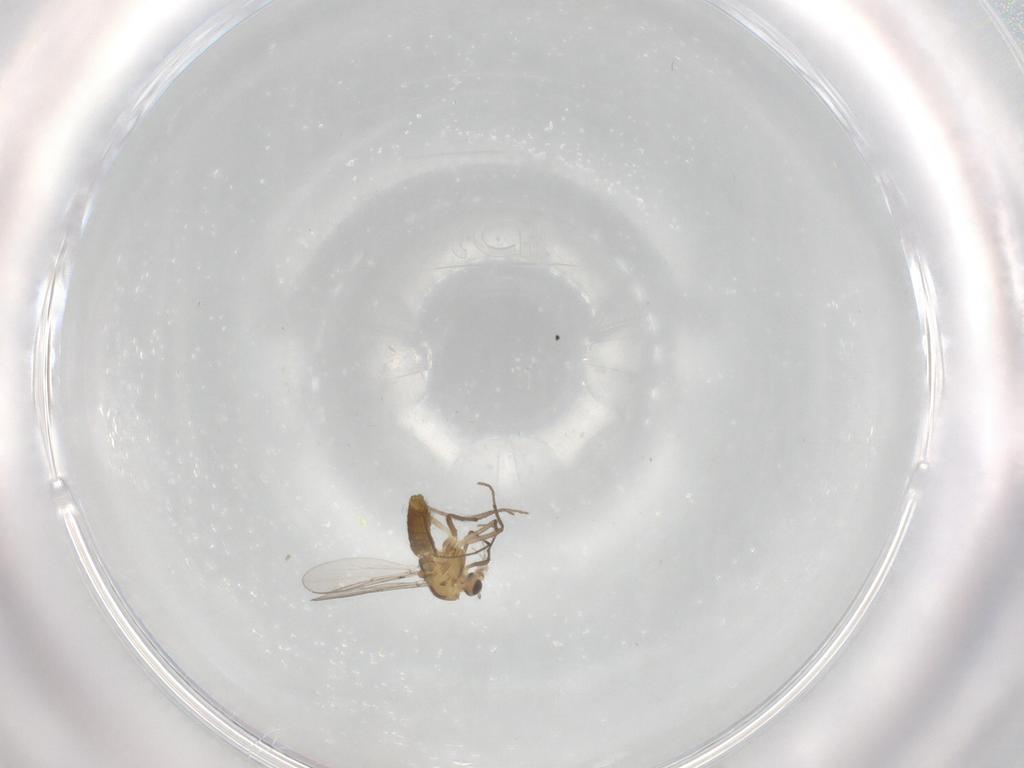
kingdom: Animalia
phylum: Arthropoda
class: Insecta
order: Diptera
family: Chironomidae
